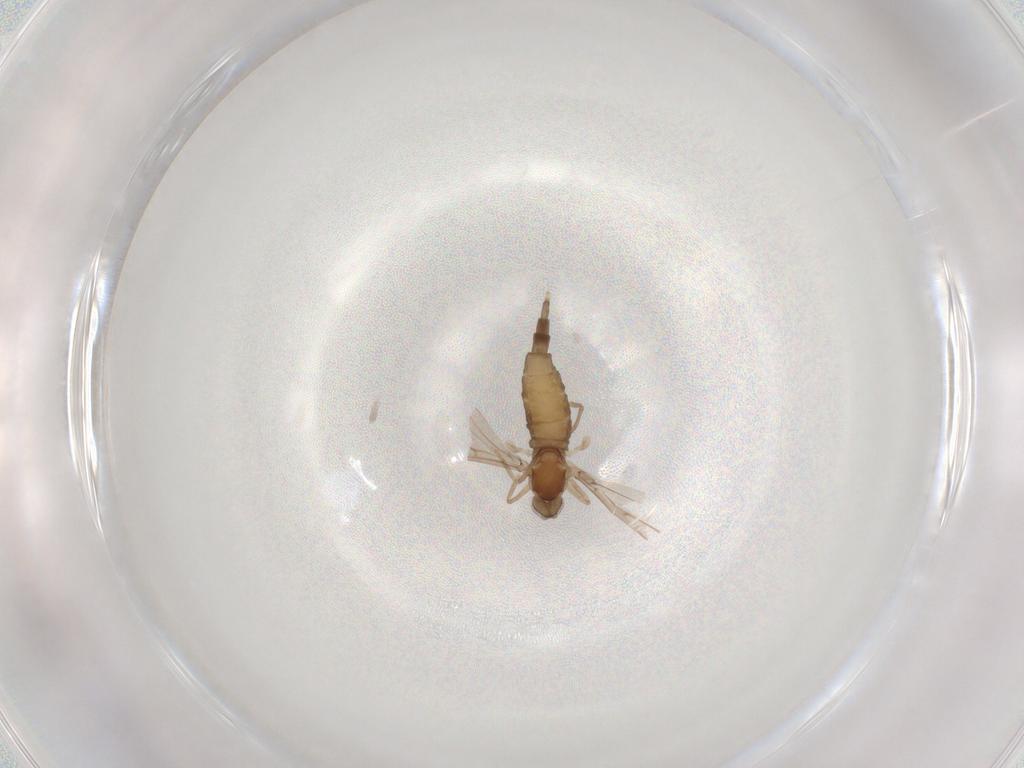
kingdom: Animalia
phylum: Arthropoda
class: Insecta
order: Diptera
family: Cecidomyiidae
